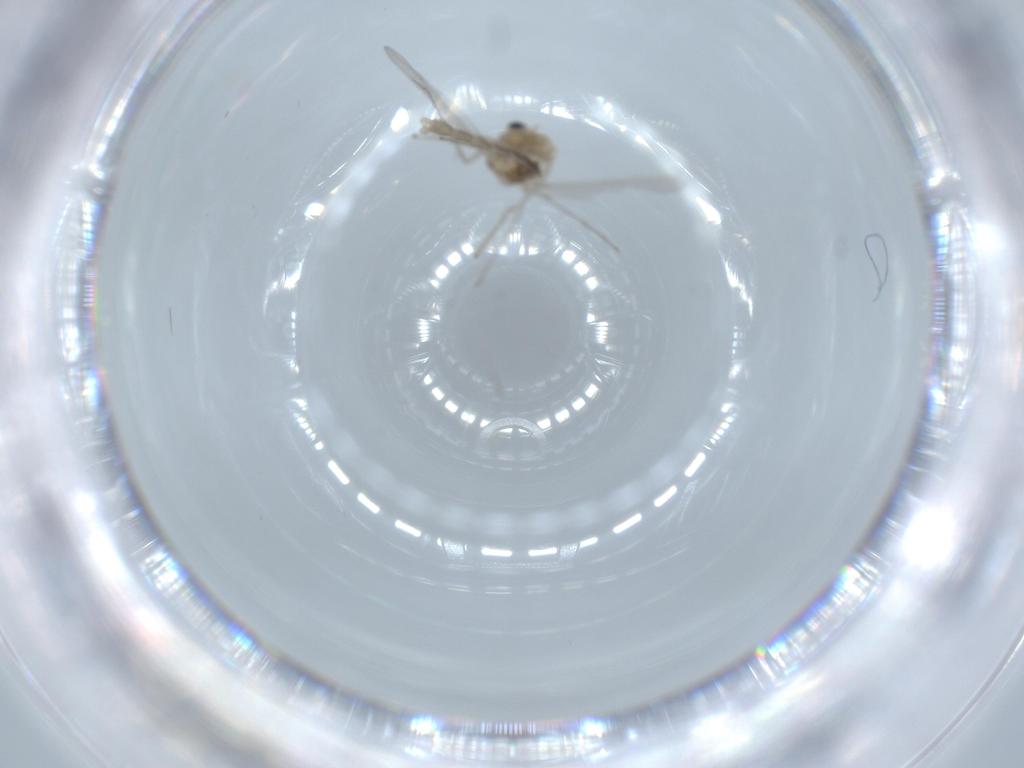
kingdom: Animalia
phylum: Arthropoda
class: Insecta
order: Diptera
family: Chironomidae
